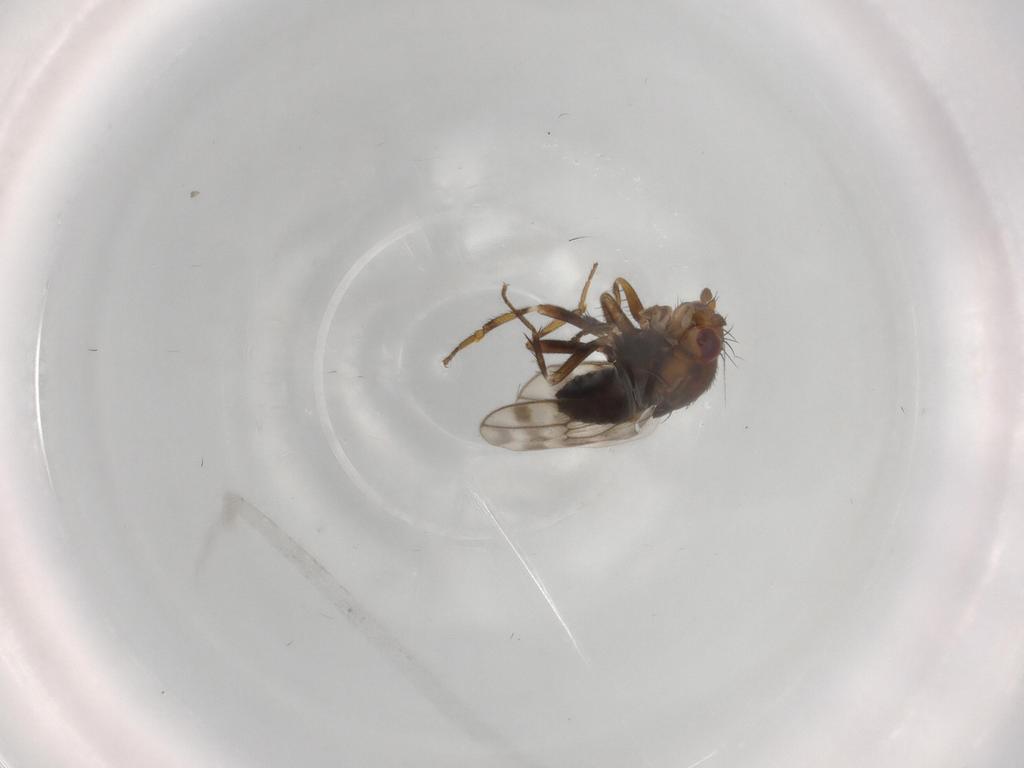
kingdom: Animalia
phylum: Arthropoda
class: Insecta
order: Diptera
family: Sphaeroceridae
